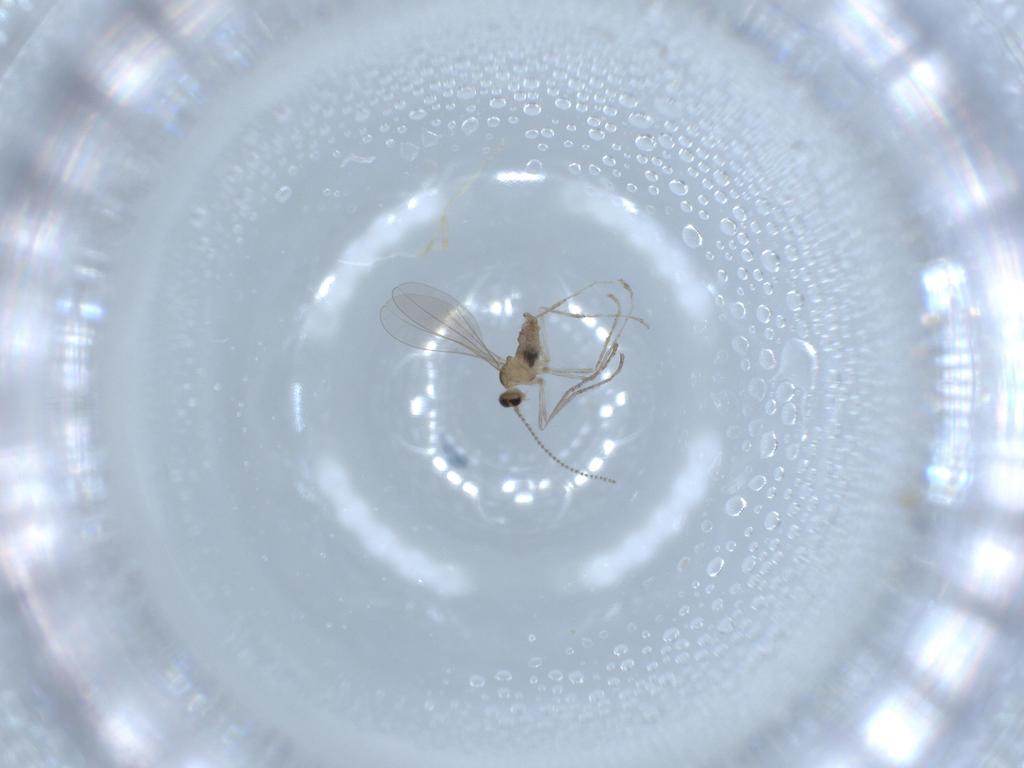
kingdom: Animalia
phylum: Arthropoda
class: Insecta
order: Diptera
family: Cecidomyiidae
